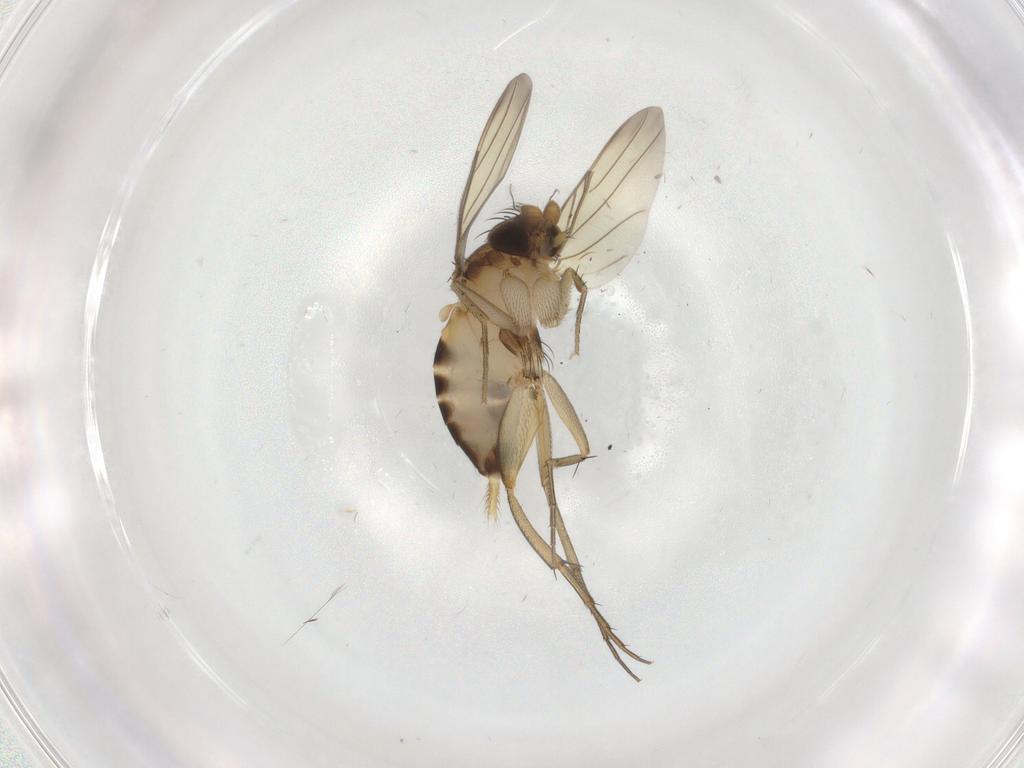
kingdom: Animalia
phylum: Arthropoda
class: Insecta
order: Diptera
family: Phoridae
